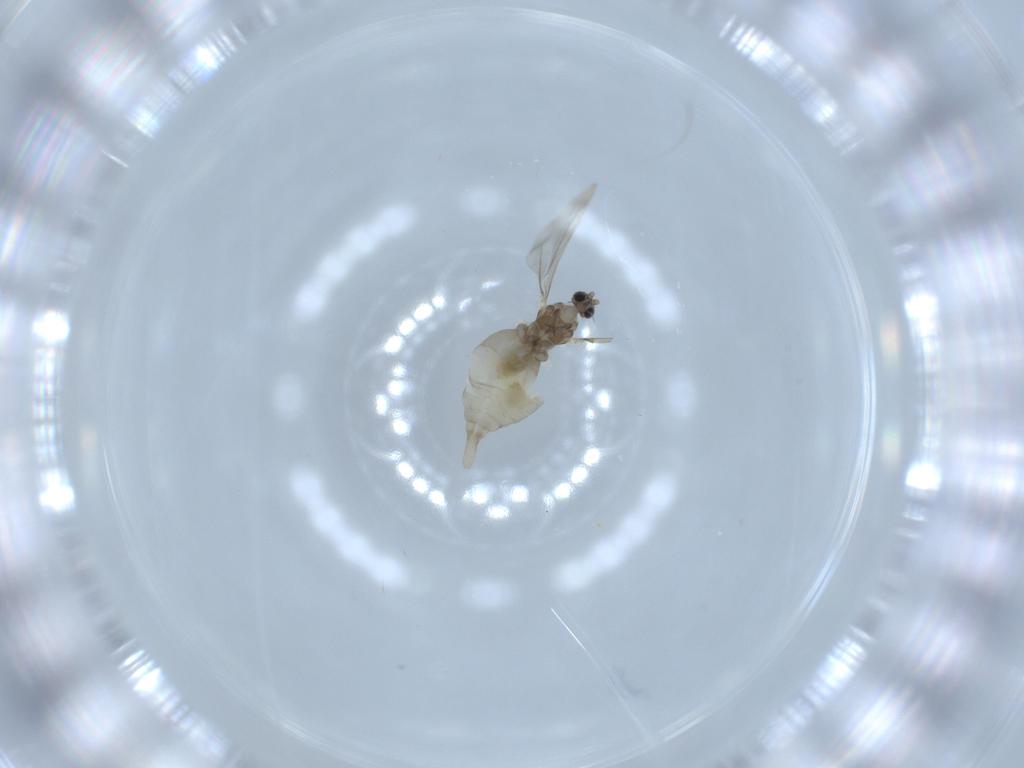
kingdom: Animalia
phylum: Arthropoda
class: Insecta
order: Diptera
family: Cecidomyiidae
